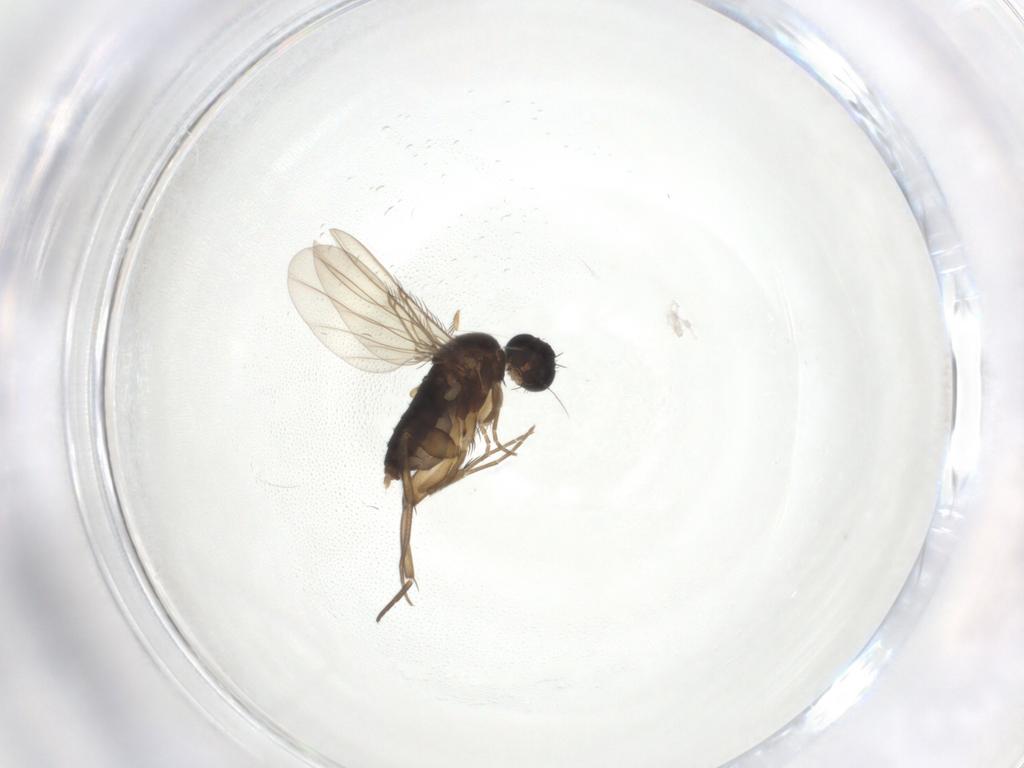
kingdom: Animalia
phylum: Arthropoda
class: Insecta
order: Diptera
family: Phoridae
